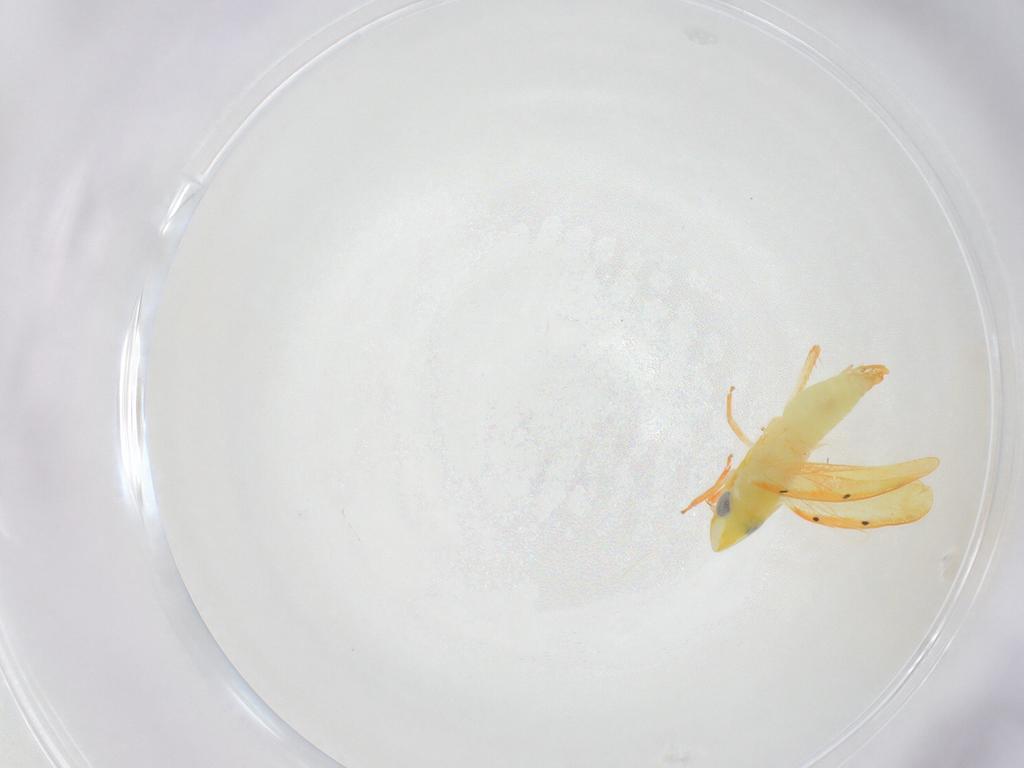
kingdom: Animalia
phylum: Arthropoda
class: Insecta
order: Hemiptera
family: Cicadellidae
